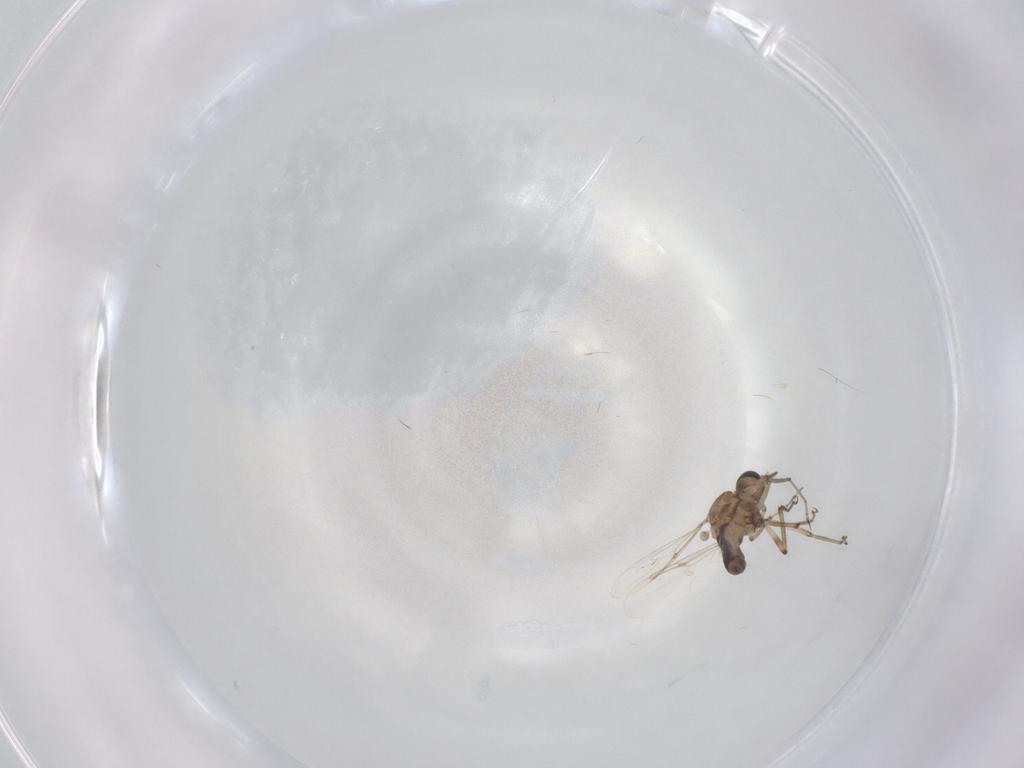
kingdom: Animalia
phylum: Arthropoda
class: Insecta
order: Diptera
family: Ceratopogonidae
